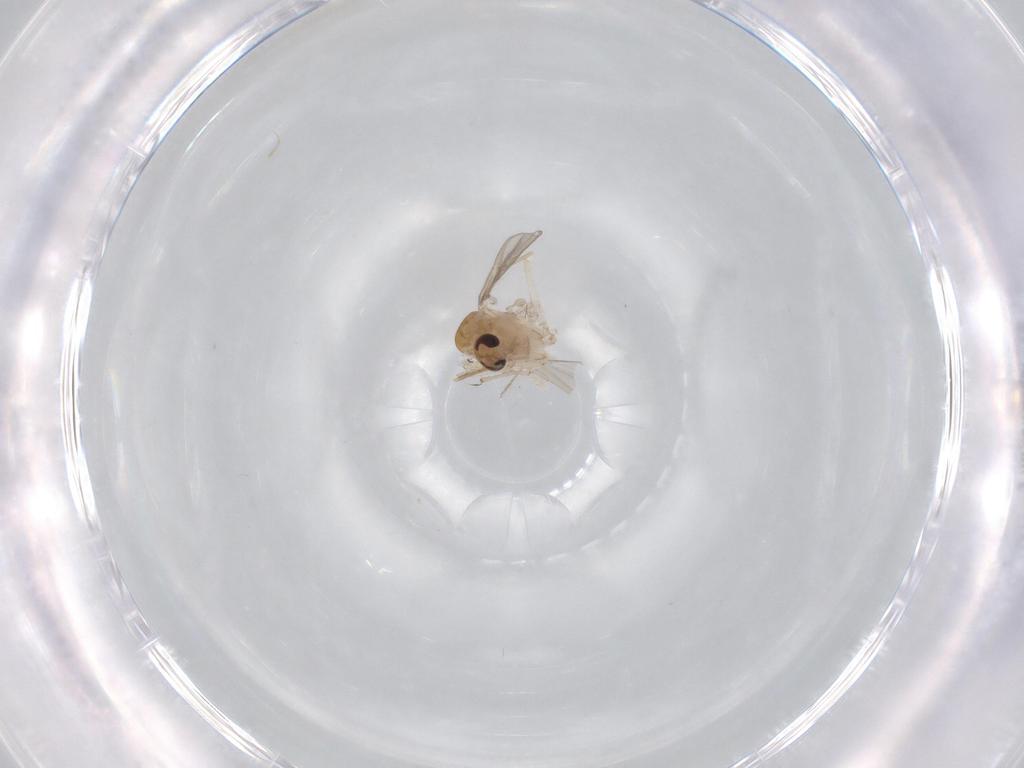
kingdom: Animalia
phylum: Arthropoda
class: Insecta
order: Diptera
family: Chironomidae
